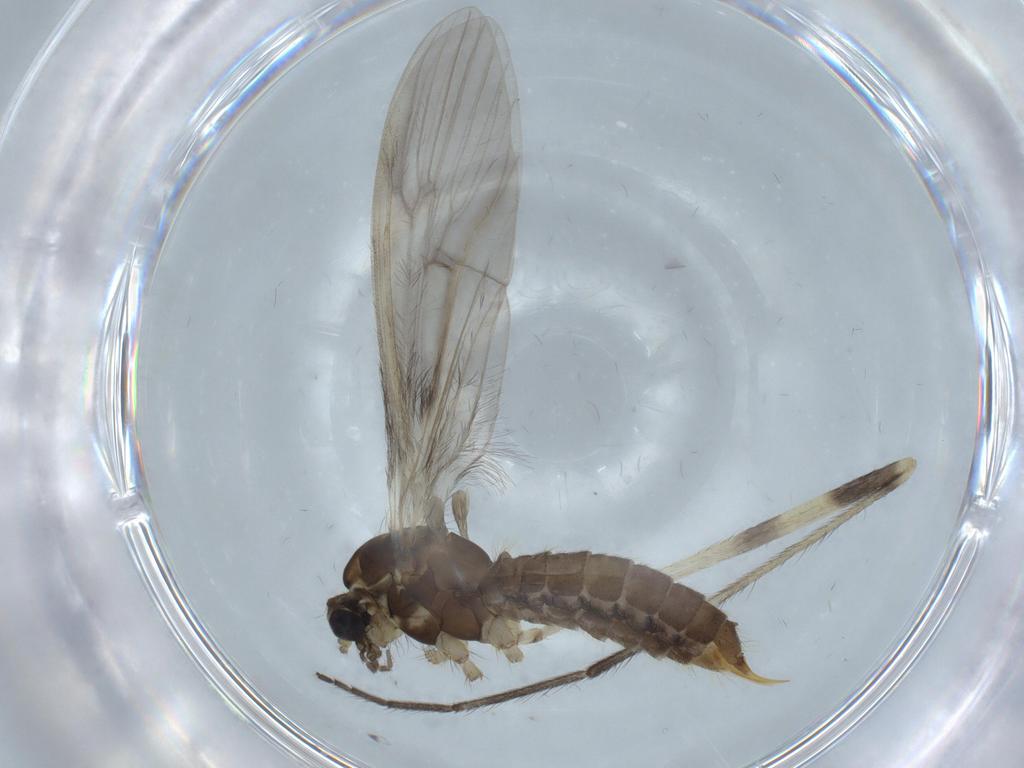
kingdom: Animalia
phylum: Arthropoda
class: Insecta
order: Diptera
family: Limoniidae
